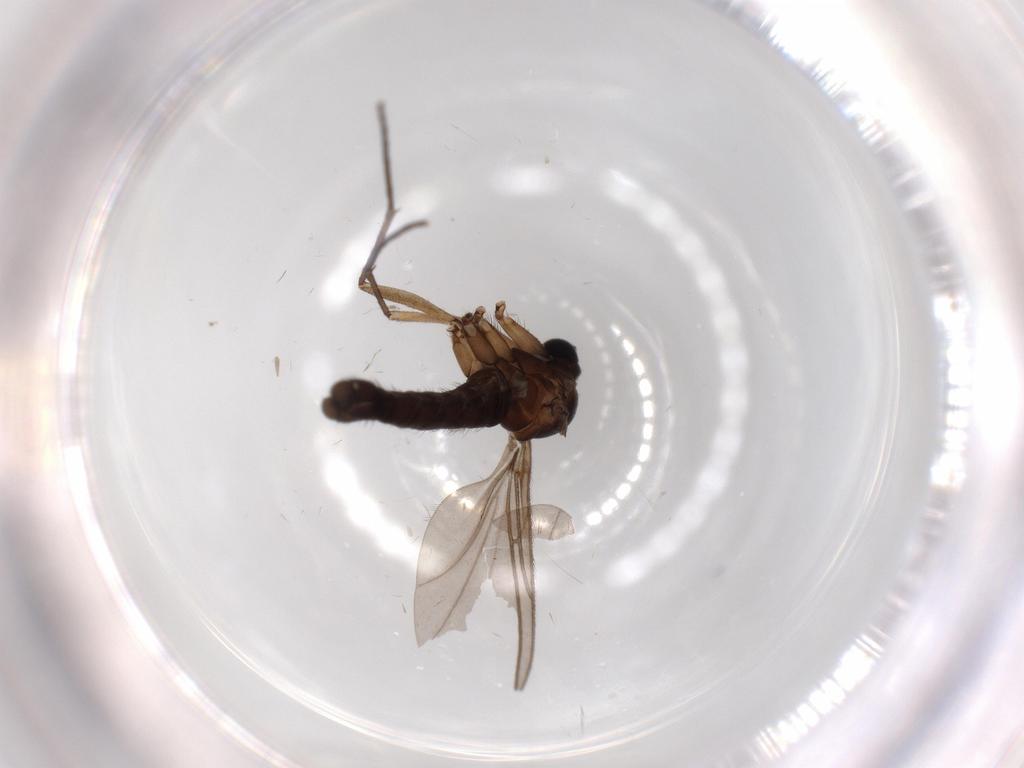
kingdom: Animalia
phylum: Arthropoda
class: Insecta
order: Diptera
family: Sciaridae
